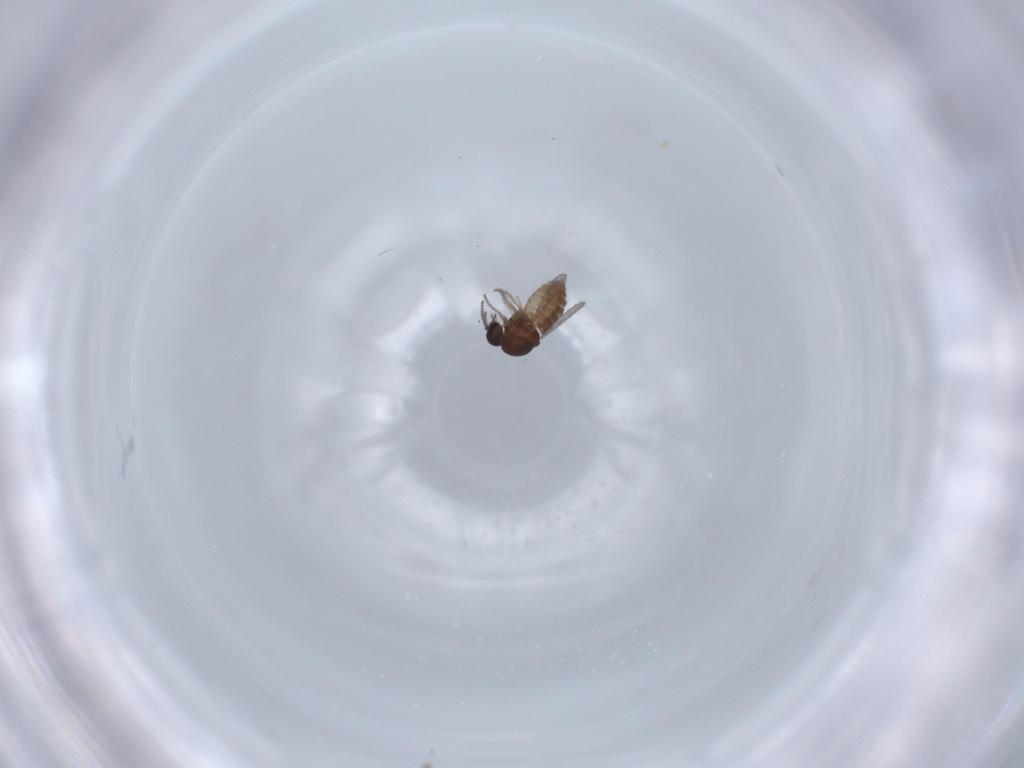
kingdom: Animalia
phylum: Arthropoda
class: Insecta
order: Diptera
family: Ceratopogonidae
